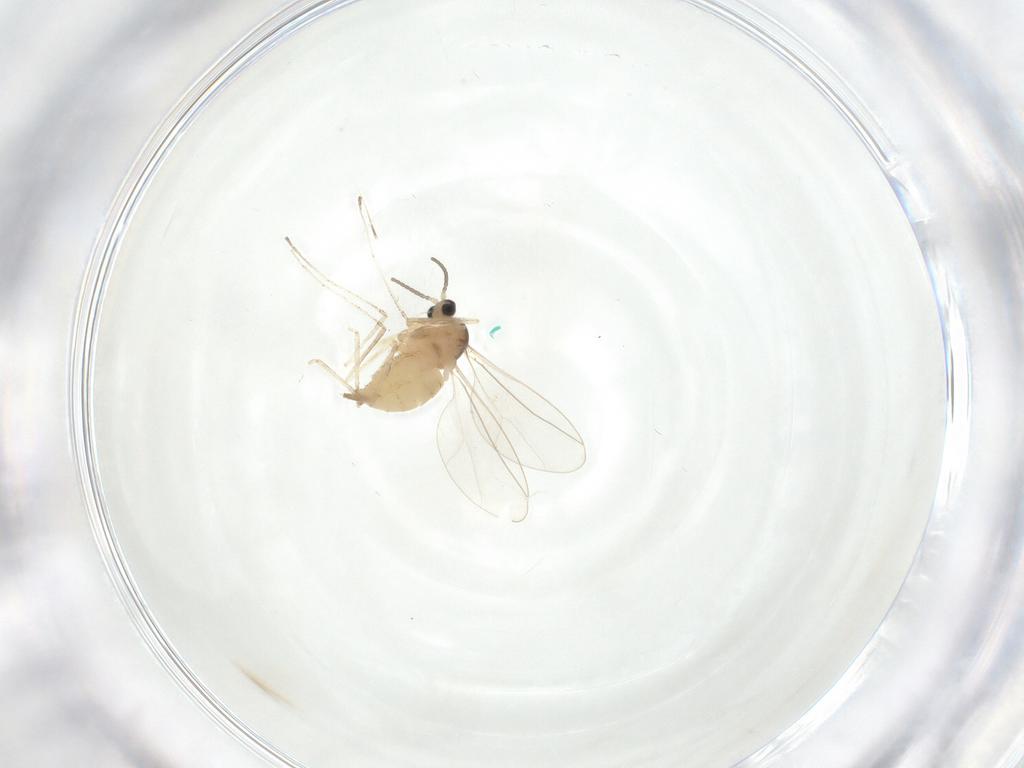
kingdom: Animalia
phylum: Arthropoda
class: Insecta
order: Diptera
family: Cecidomyiidae
